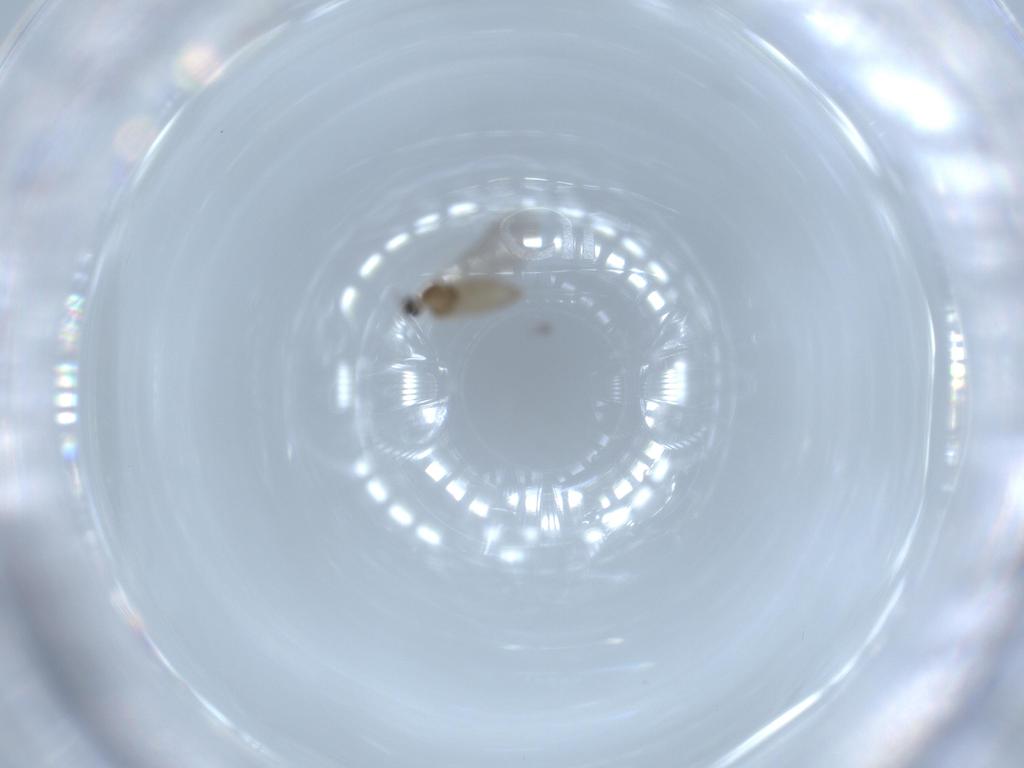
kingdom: Animalia
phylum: Arthropoda
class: Insecta
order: Diptera
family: Cecidomyiidae
